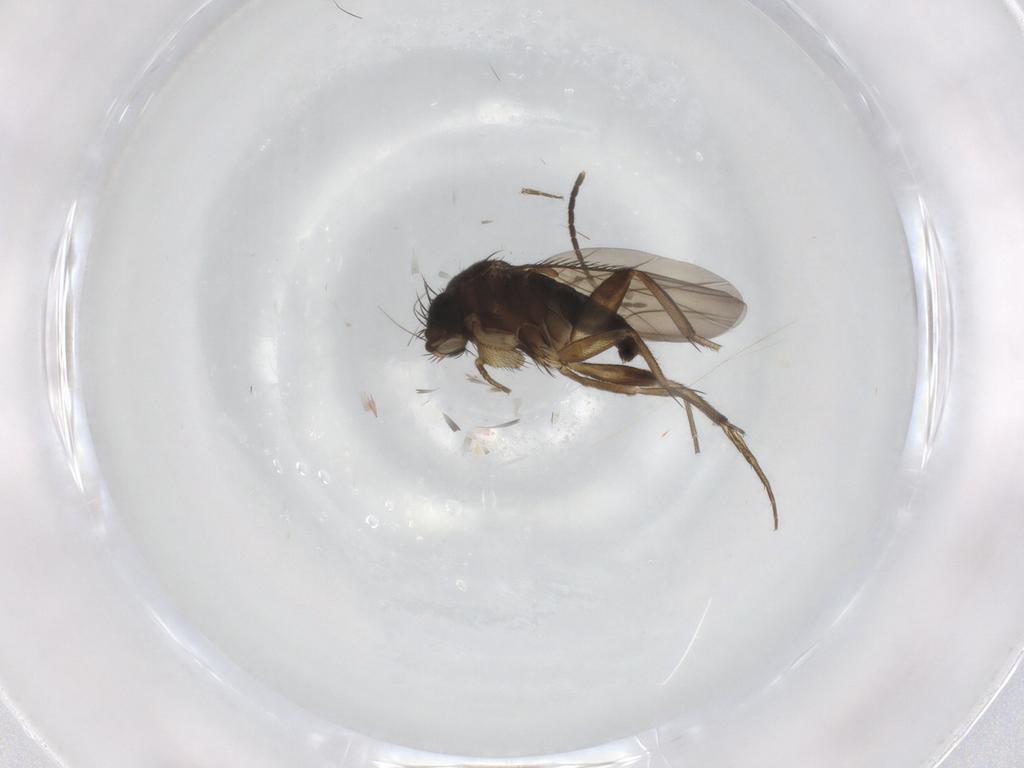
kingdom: Animalia
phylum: Arthropoda
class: Insecta
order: Diptera
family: Phoridae
